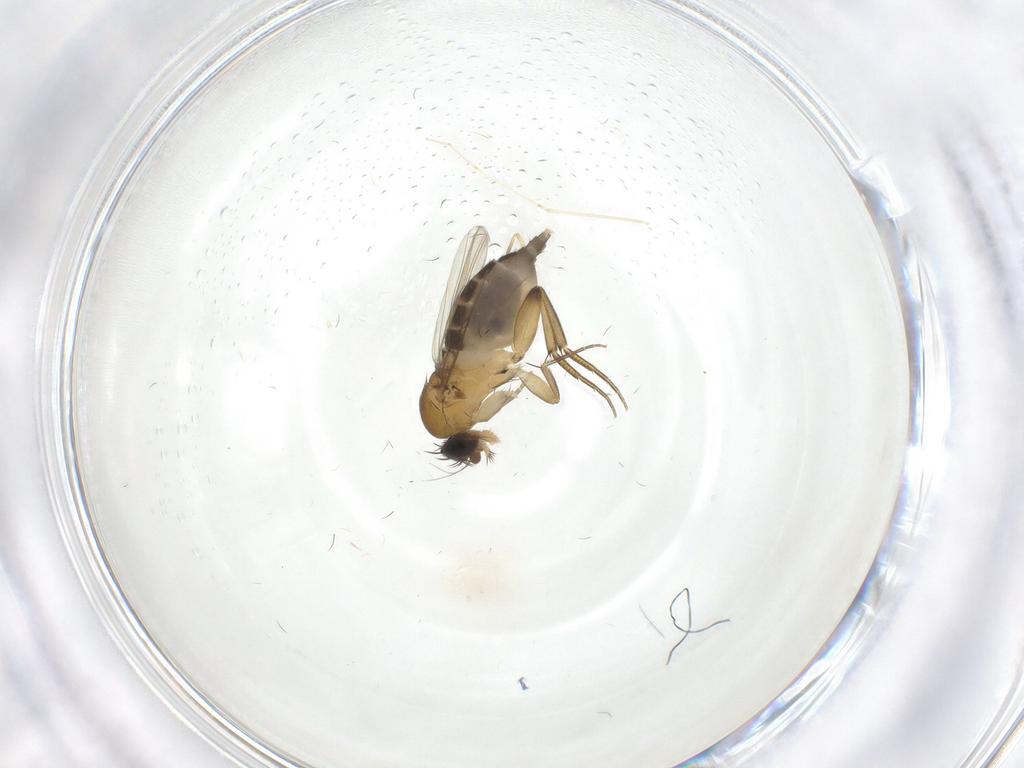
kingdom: Animalia
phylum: Arthropoda
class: Insecta
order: Diptera
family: Phoridae
